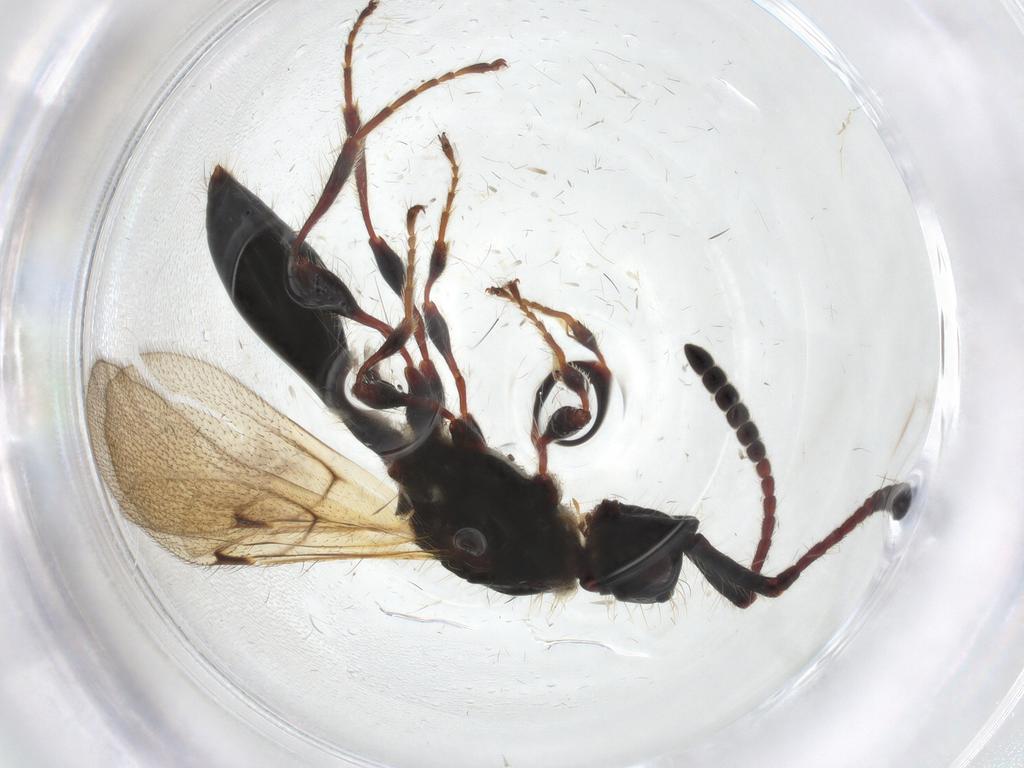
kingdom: Animalia
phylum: Arthropoda
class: Insecta
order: Hymenoptera
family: Diapriidae
